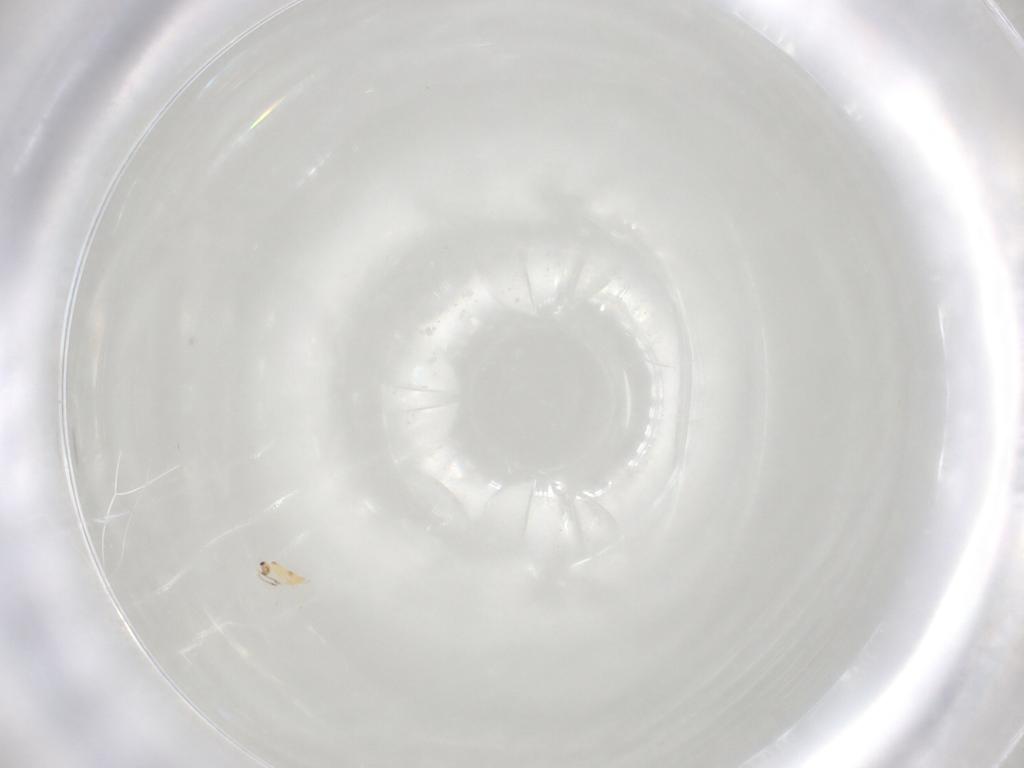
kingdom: Animalia
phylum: Arthropoda
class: Insecta
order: Hymenoptera
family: Mymaridae
